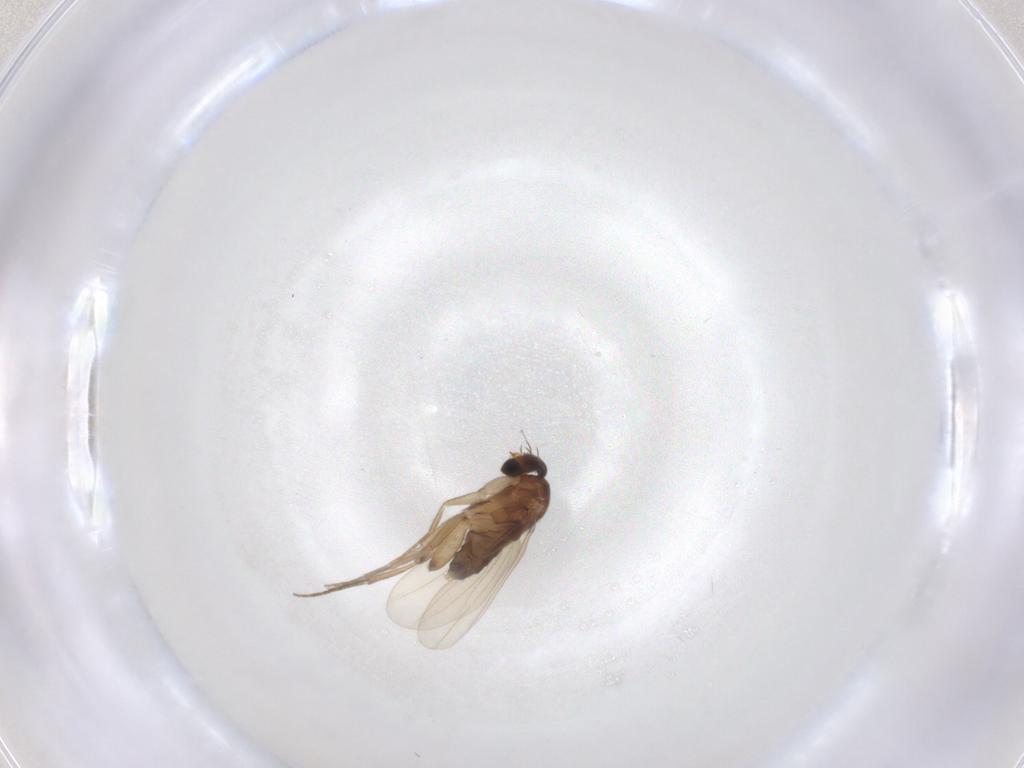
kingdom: Animalia
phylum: Arthropoda
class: Insecta
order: Diptera
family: Phoridae
